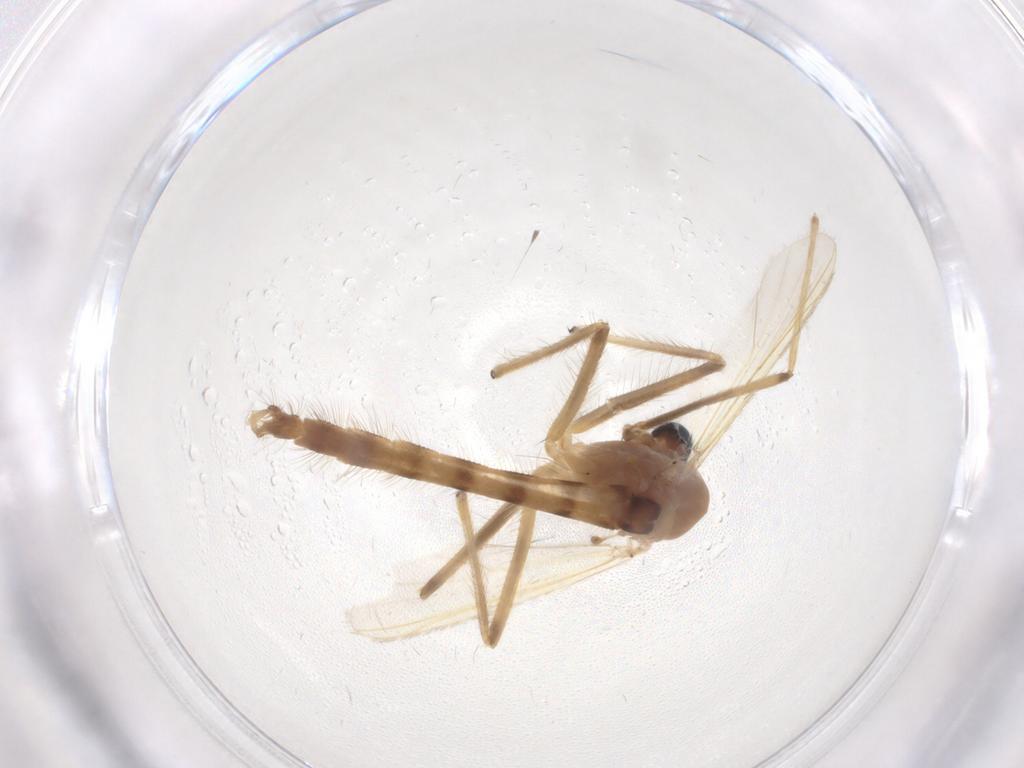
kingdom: Animalia
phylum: Arthropoda
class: Insecta
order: Diptera
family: Chironomidae
